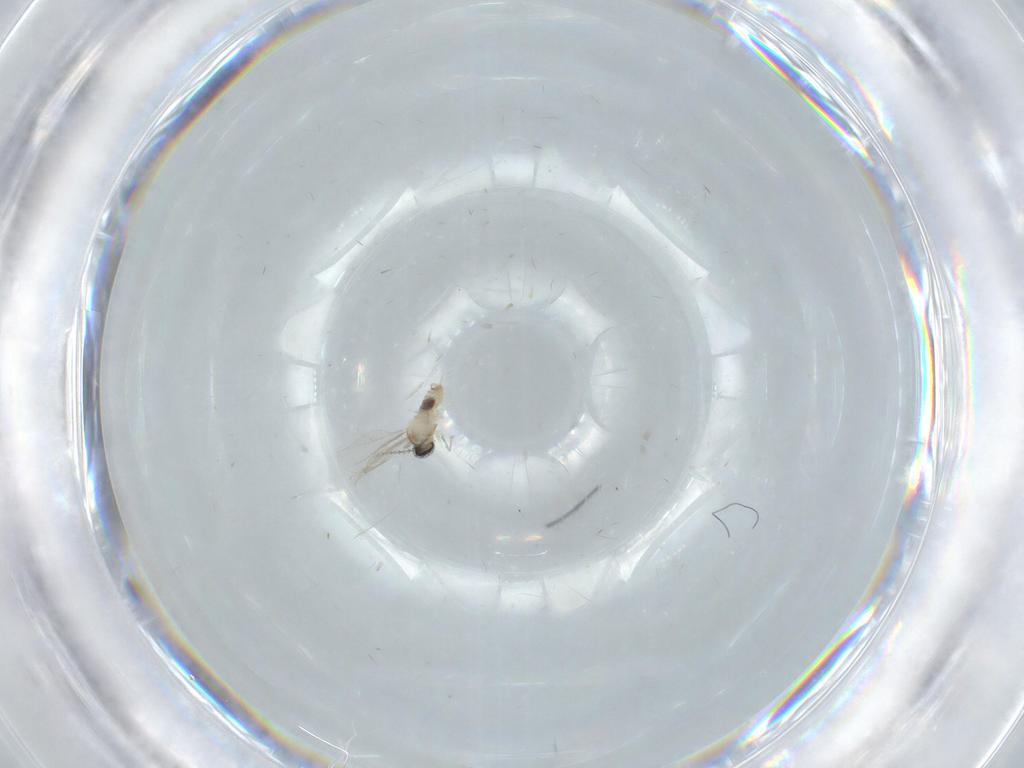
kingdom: Animalia
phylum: Arthropoda
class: Insecta
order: Diptera
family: Cecidomyiidae
